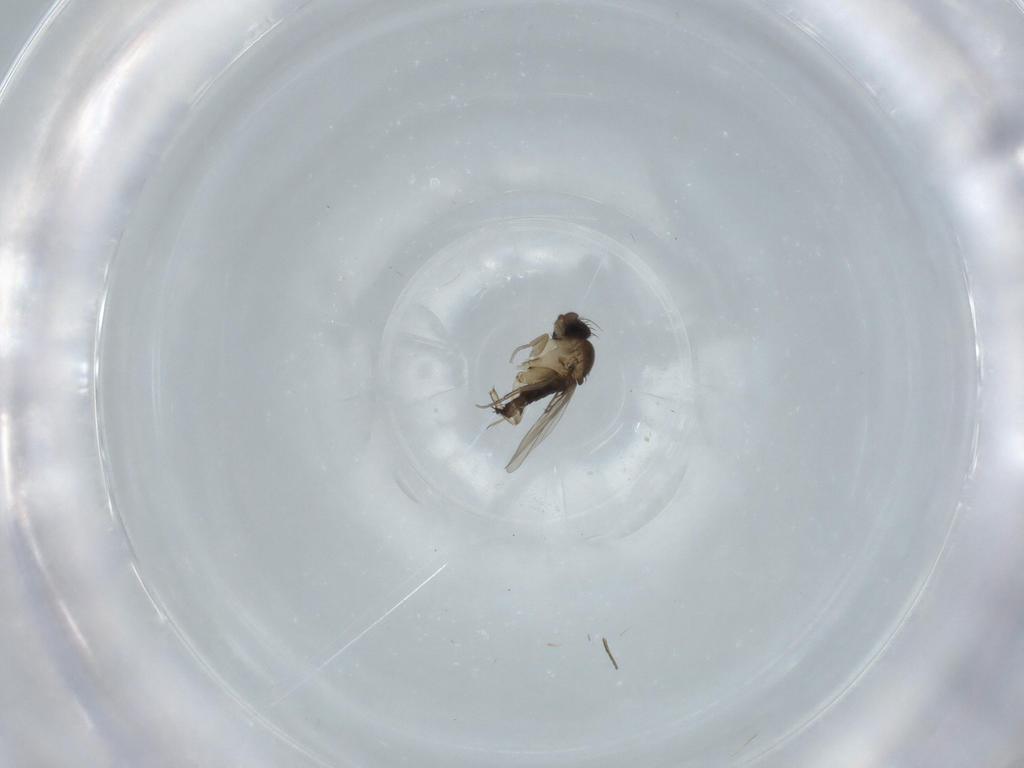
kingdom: Animalia
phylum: Arthropoda
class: Insecta
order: Diptera
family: Phoridae
